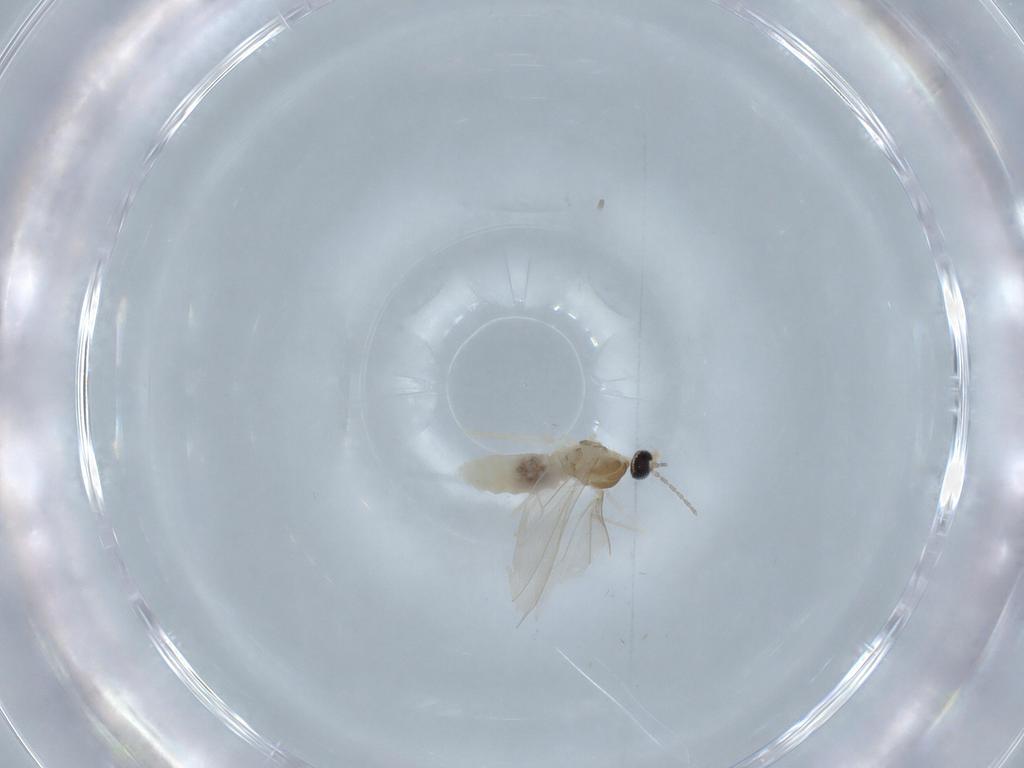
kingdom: Animalia
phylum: Arthropoda
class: Insecta
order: Diptera
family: Cecidomyiidae
